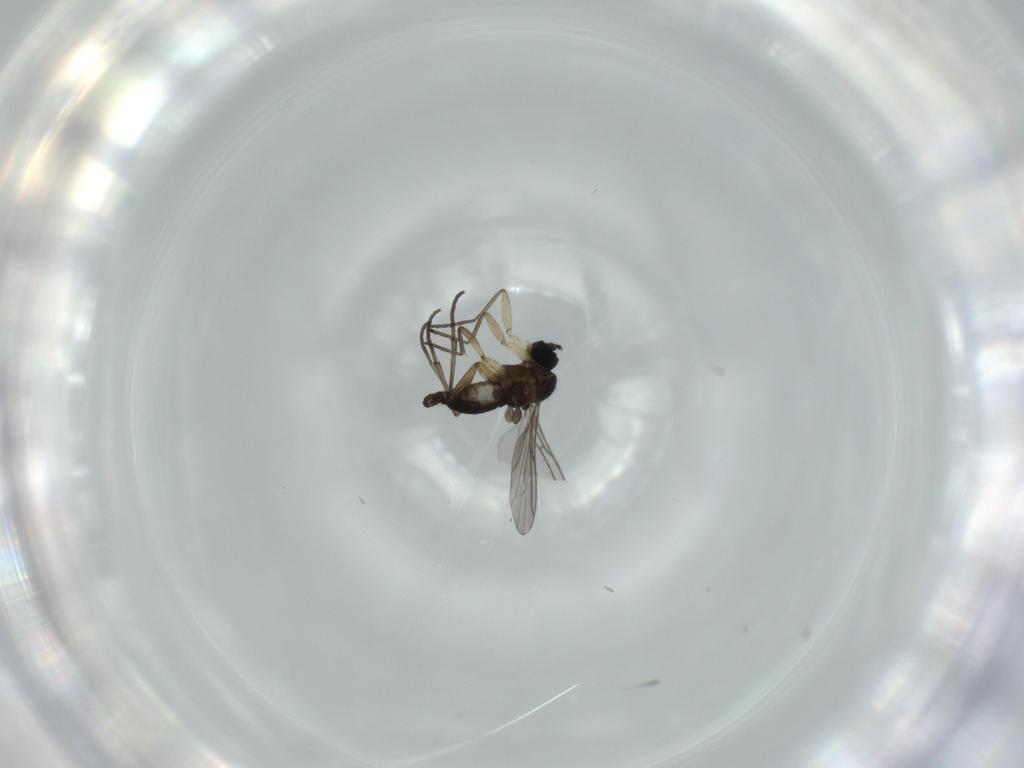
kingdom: Animalia
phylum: Arthropoda
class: Insecta
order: Diptera
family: Sciaridae
